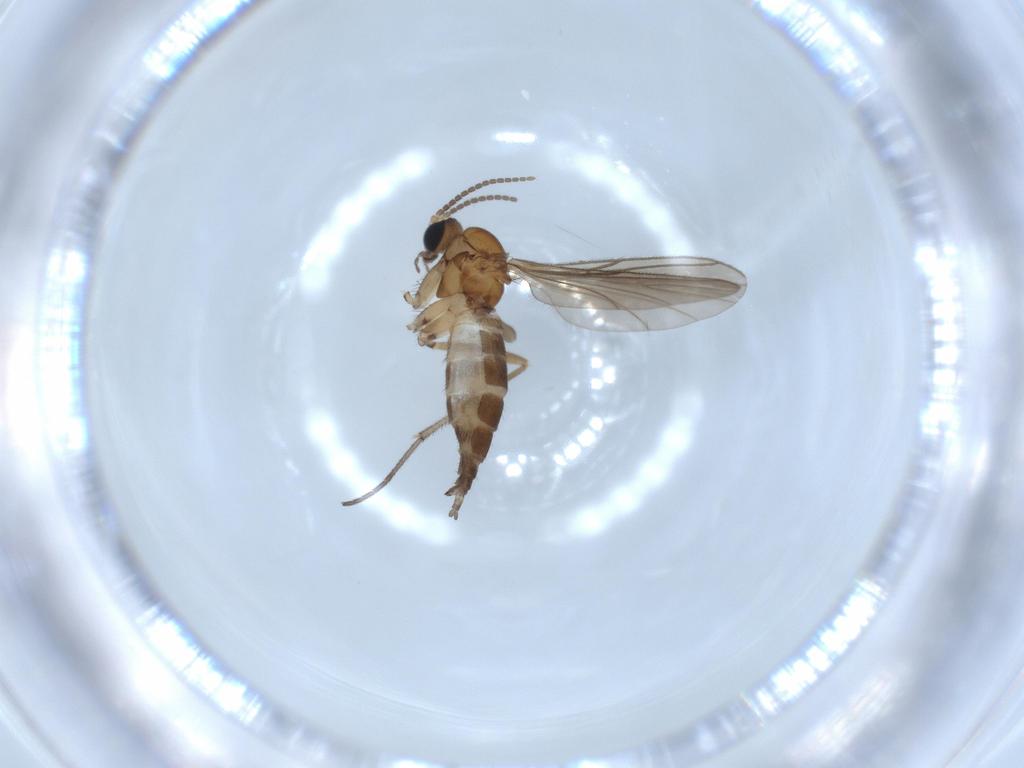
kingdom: Animalia
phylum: Arthropoda
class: Insecta
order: Diptera
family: Sciaridae
